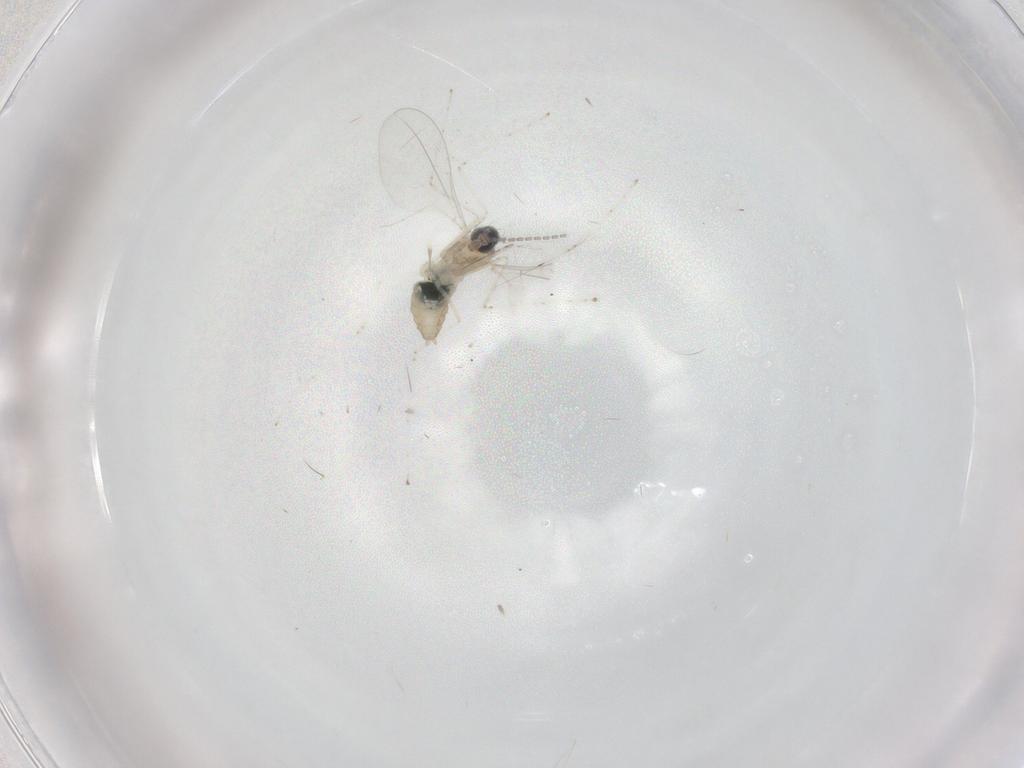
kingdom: Animalia
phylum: Arthropoda
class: Insecta
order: Diptera
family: Cecidomyiidae
